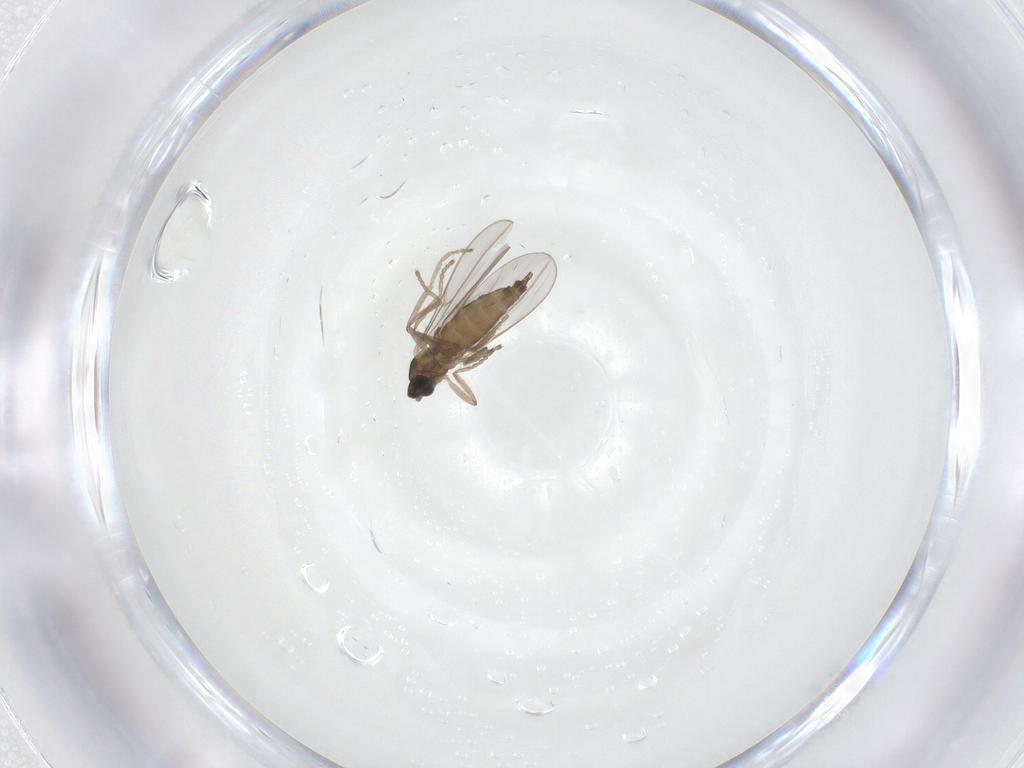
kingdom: Animalia
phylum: Arthropoda
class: Insecta
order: Diptera
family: Cecidomyiidae
